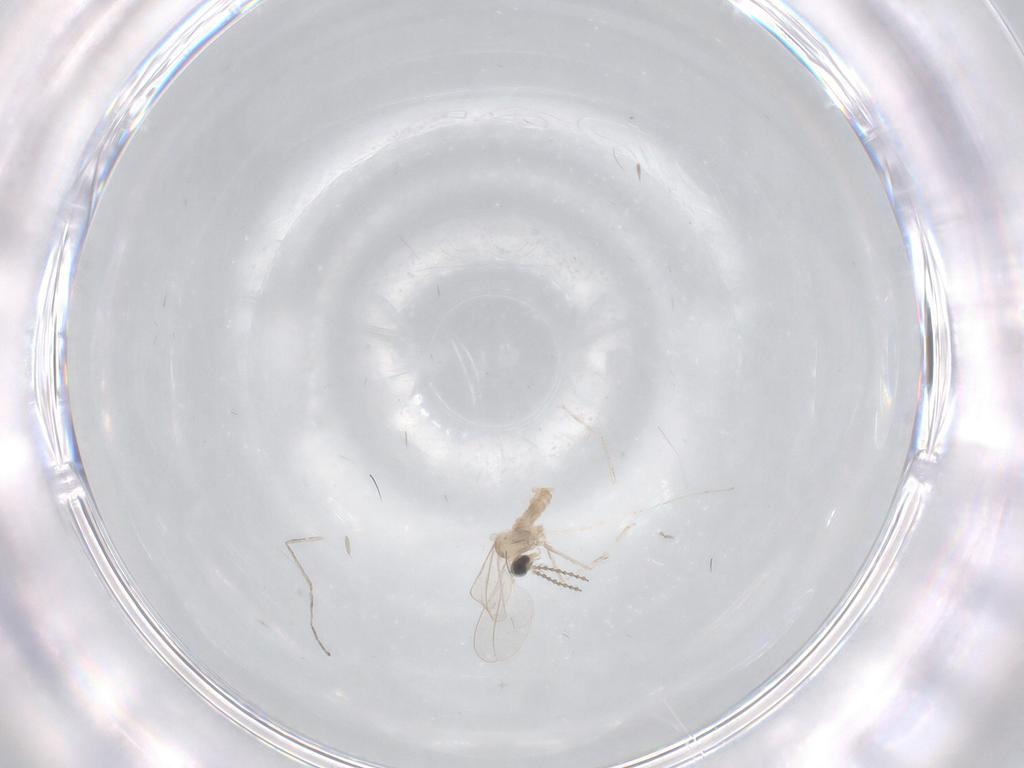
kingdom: Animalia
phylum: Arthropoda
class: Insecta
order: Diptera
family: Cecidomyiidae
